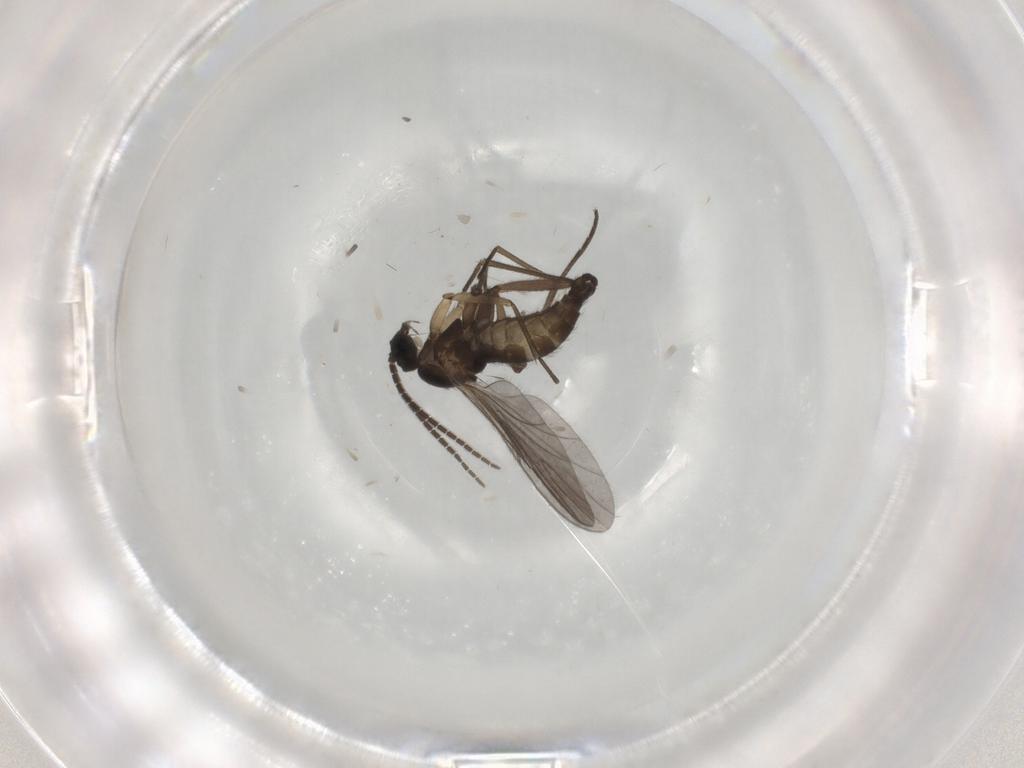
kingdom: Animalia
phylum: Arthropoda
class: Insecta
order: Diptera
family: Sciaridae
